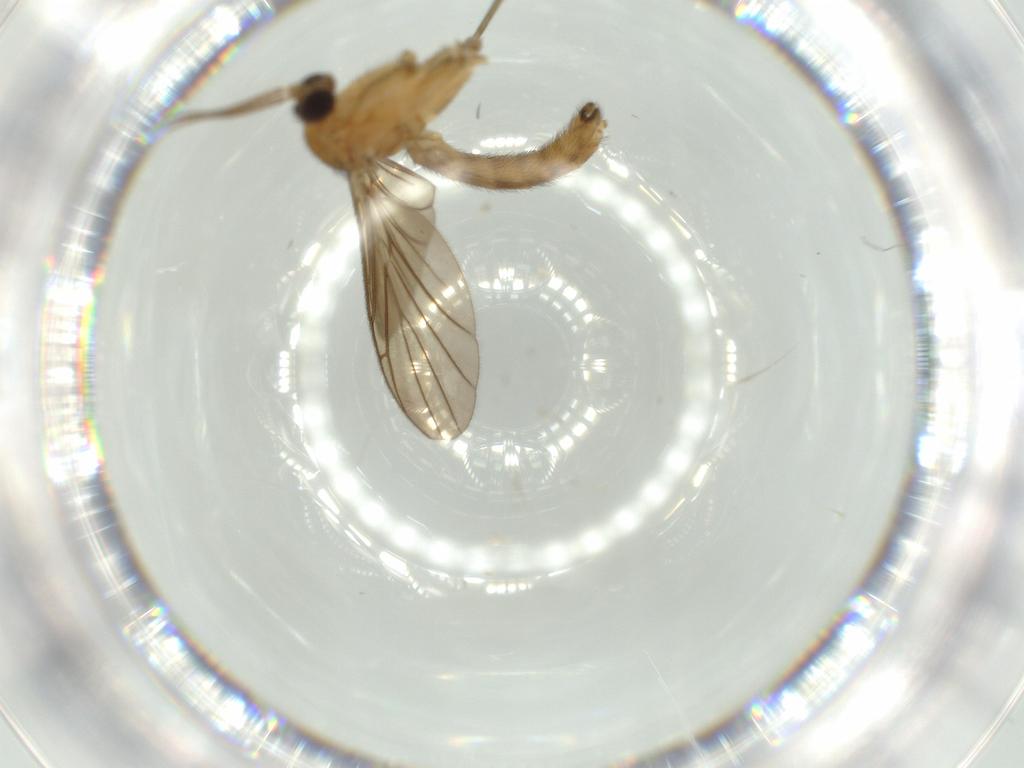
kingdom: Animalia
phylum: Arthropoda
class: Insecta
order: Diptera
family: Keroplatidae
